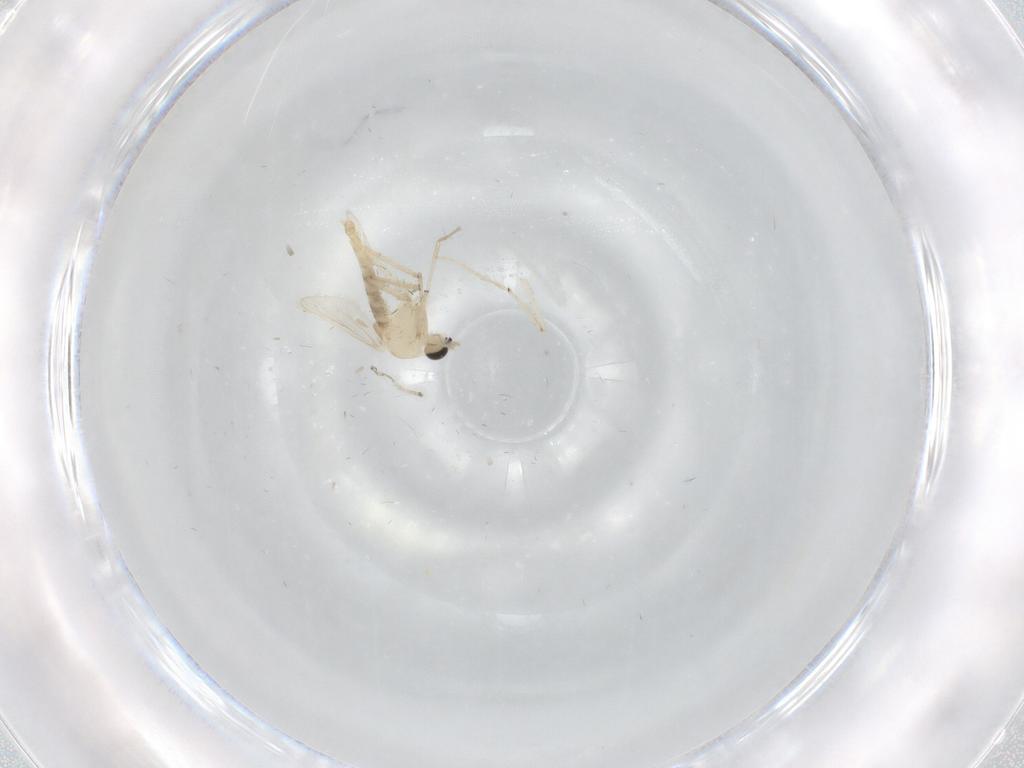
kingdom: Animalia
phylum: Arthropoda
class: Insecta
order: Diptera
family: Chironomidae
